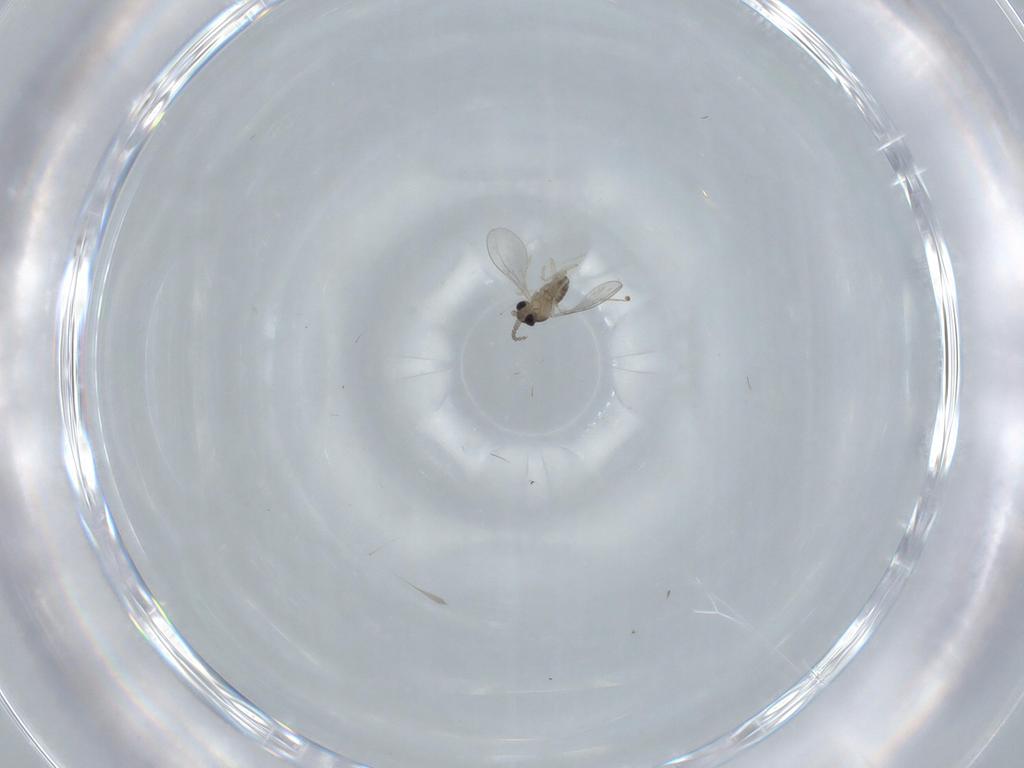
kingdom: Animalia
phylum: Arthropoda
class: Insecta
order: Diptera
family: Cecidomyiidae
